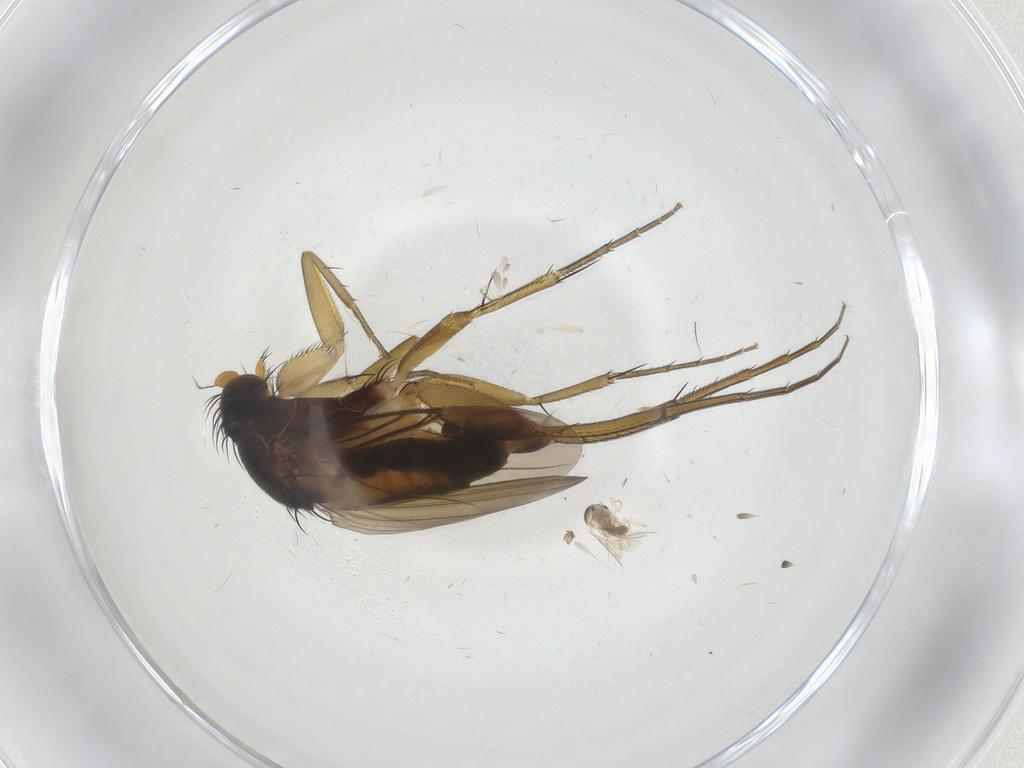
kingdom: Animalia
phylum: Arthropoda
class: Insecta
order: Diptera
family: Phoridae
